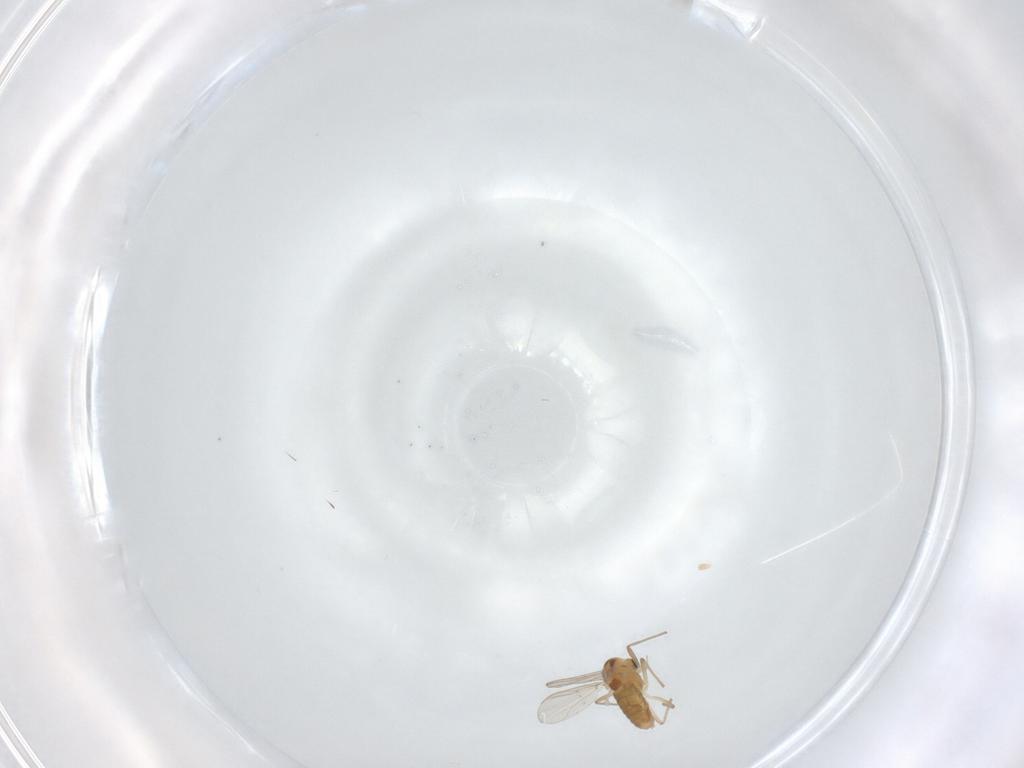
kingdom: Animalia
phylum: Arthropoda
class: Insecta
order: Diptera
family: Chironomidae
